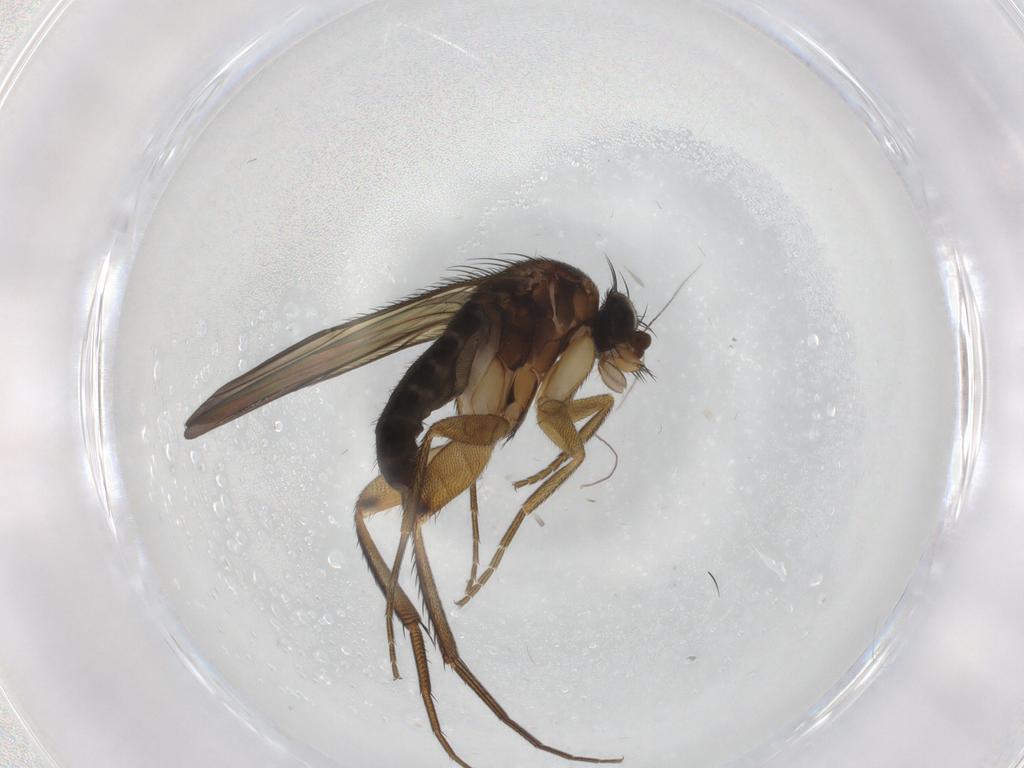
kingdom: Animalia
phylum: Arthropoda
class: Insecta
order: Diptera
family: Phoridae
